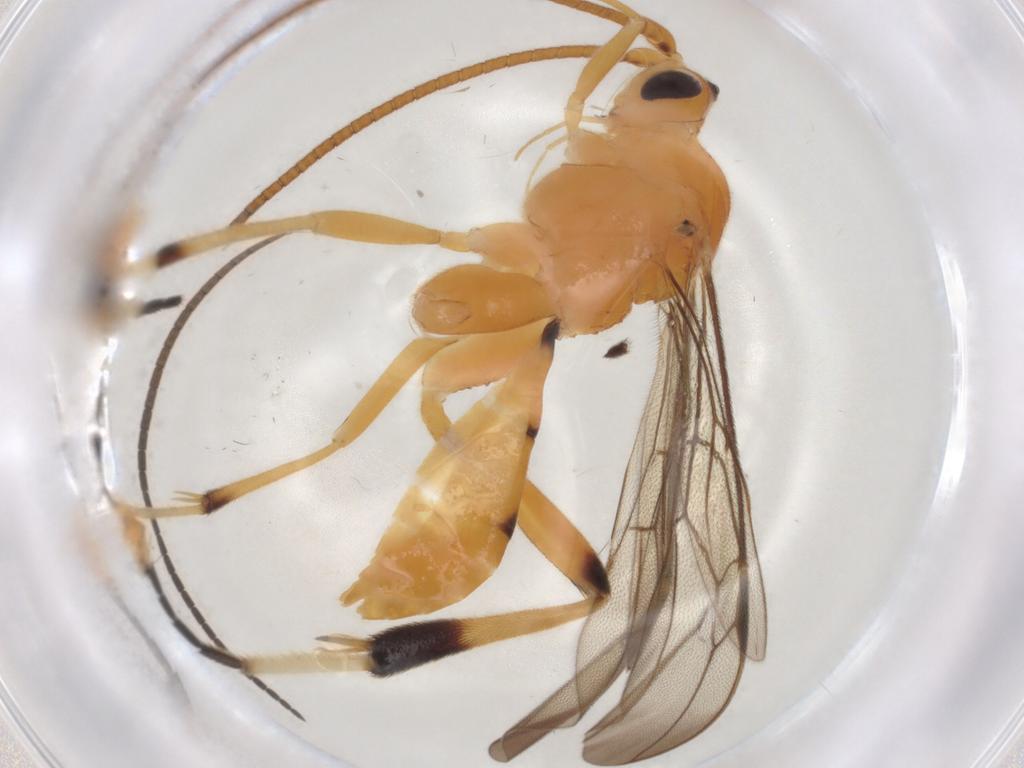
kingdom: Animalia
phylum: Arthropoda
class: Insecta
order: Hymenoptera
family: Braconidae
